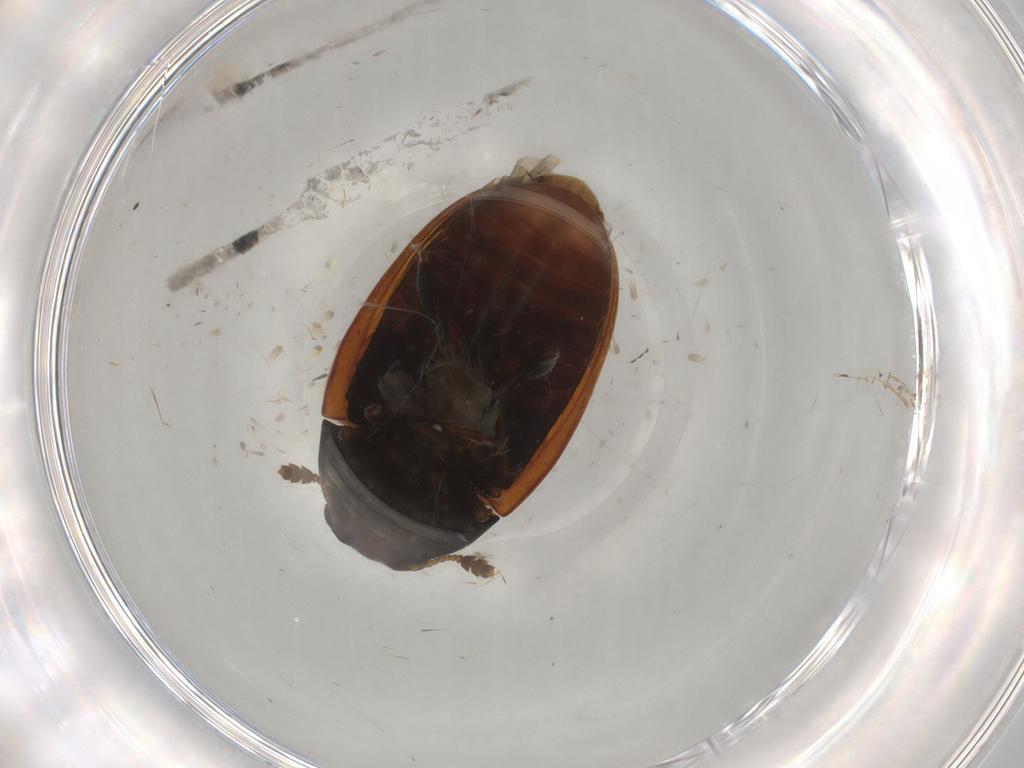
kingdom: Animalia
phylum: Arthropoda
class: Insecta
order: Coleoptera
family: Erotylidae
